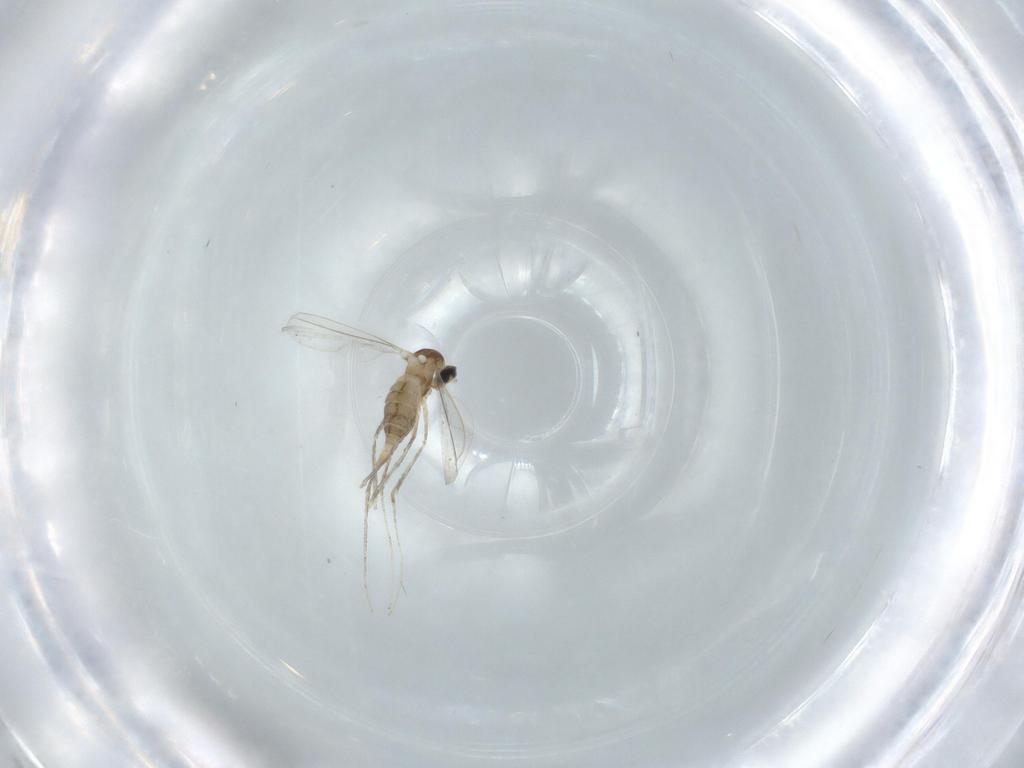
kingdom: Animalia
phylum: Arthropoda
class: Insecta
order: Diptera
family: Cecidomyiidae
